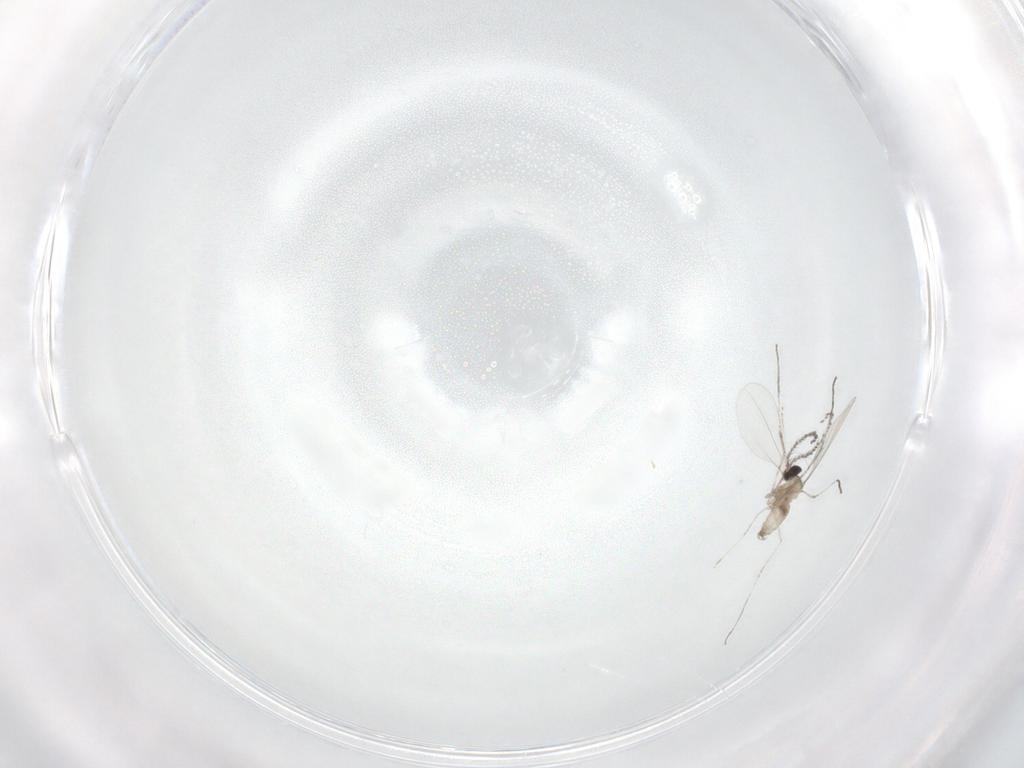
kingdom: Animalia
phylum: Arthropoda
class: Insecta
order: Diptera
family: Cecidomyiidae
